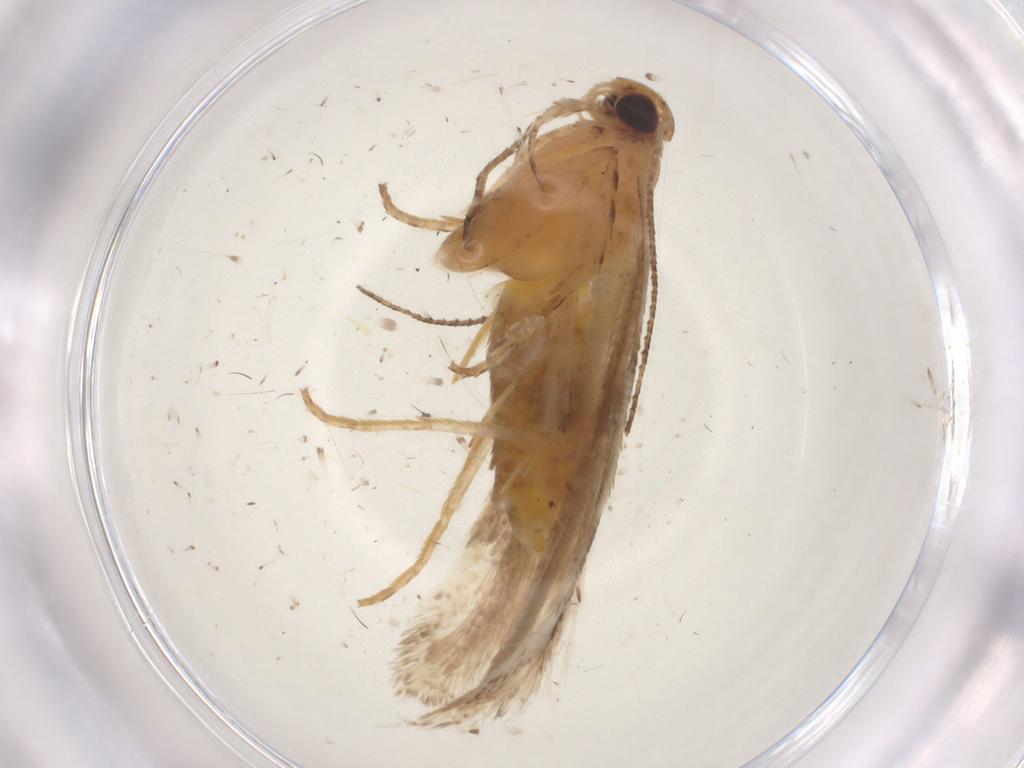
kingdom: Animalia
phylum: Arthropoda
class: Insecta
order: Lepidoptera
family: Gelechiidae
